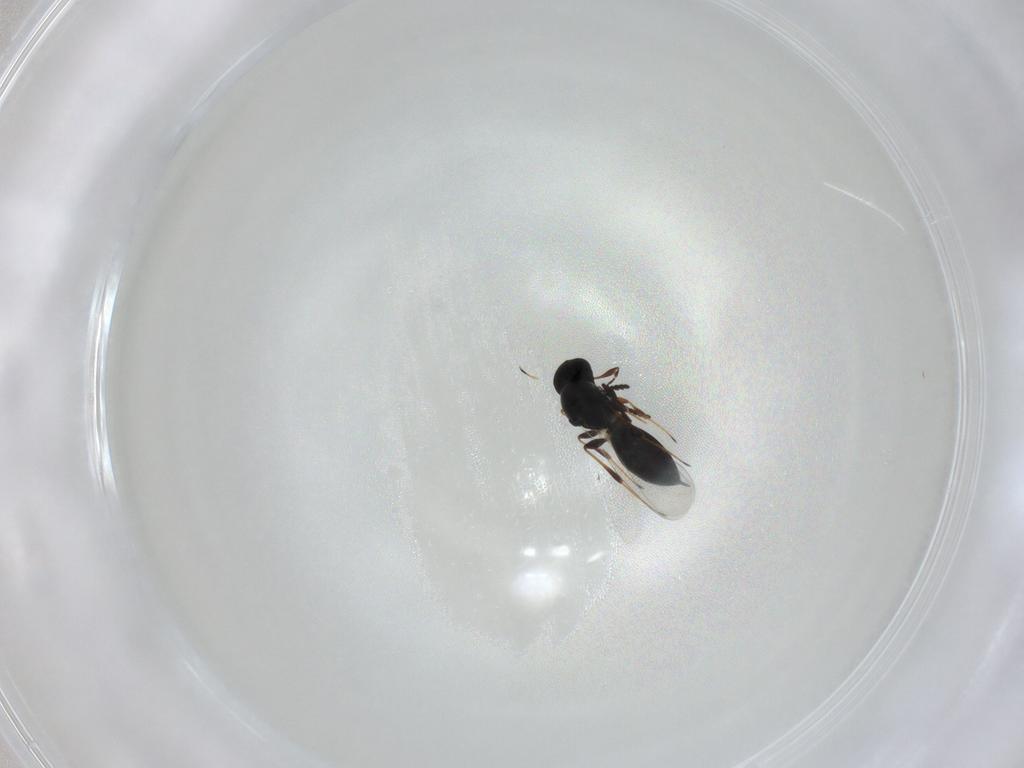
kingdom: Animalia
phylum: Arthropoda
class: Insecta
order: Hymenoptera
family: Platygastridae
